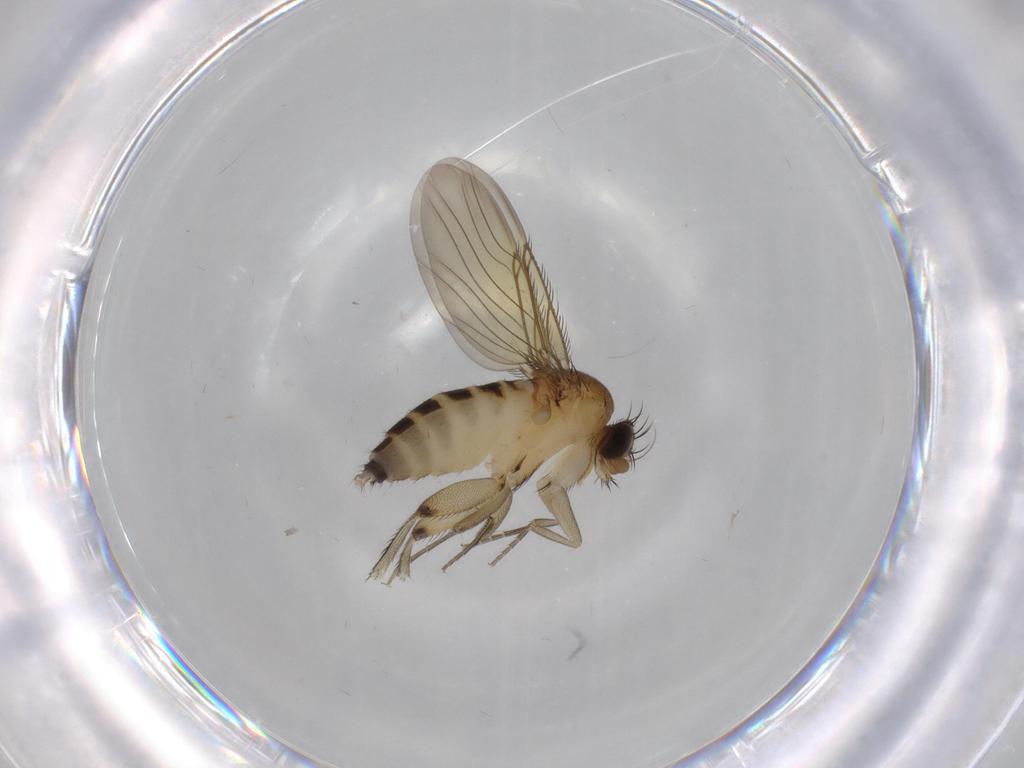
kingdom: Animalia
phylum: Arthropoda
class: Insecta
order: Diptera
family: Phoridae
